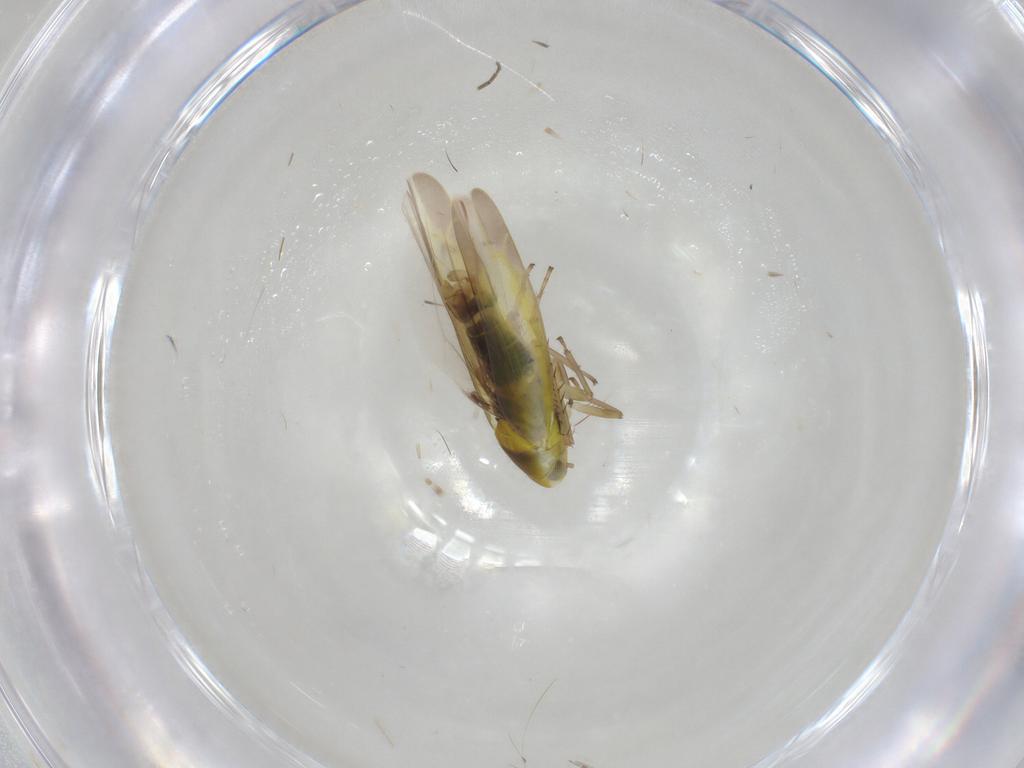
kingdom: Animalia
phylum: Arthropoda
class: Insecta
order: Hemiptera
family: Cicadellidae
